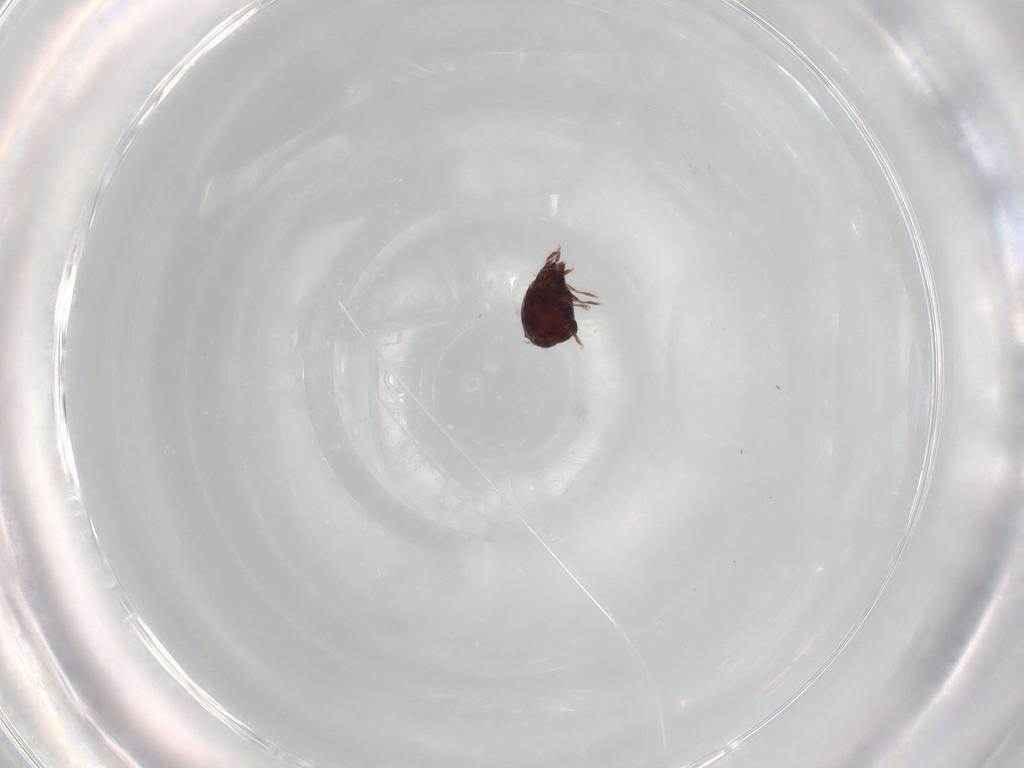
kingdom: Animalia
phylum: Arthropoda
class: Arachnida
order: Sarcoptiformes
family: Humerobatidae
